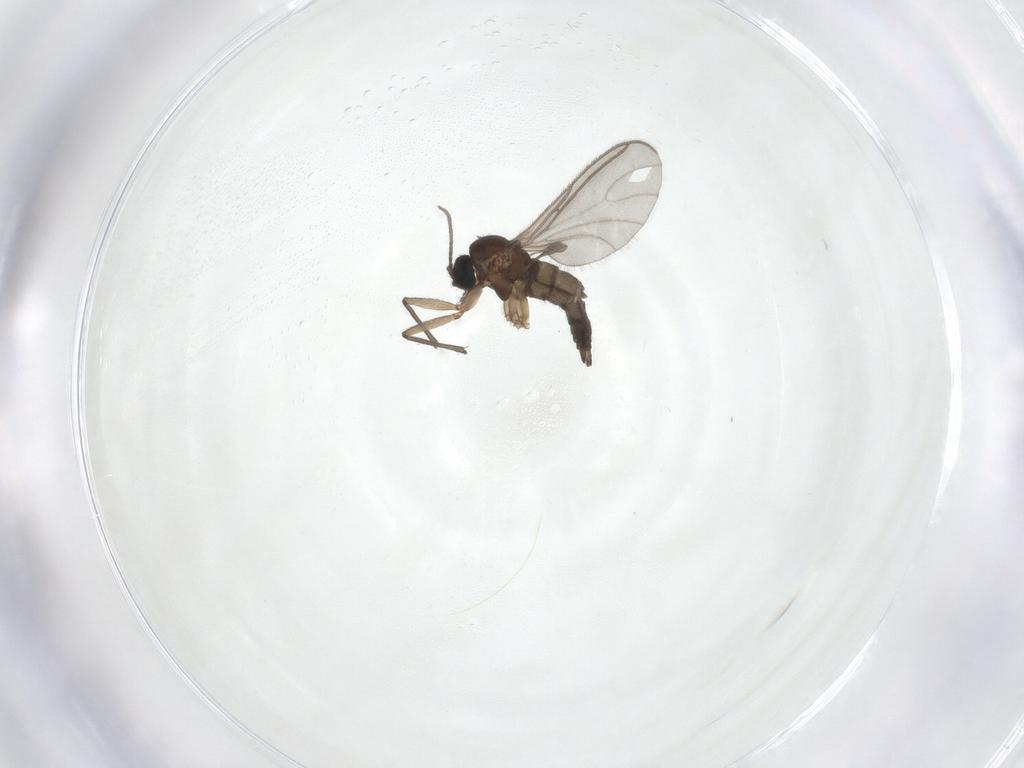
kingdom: Animalia
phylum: Arthropoda
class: Insecta
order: Diptera
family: Sciaridae
